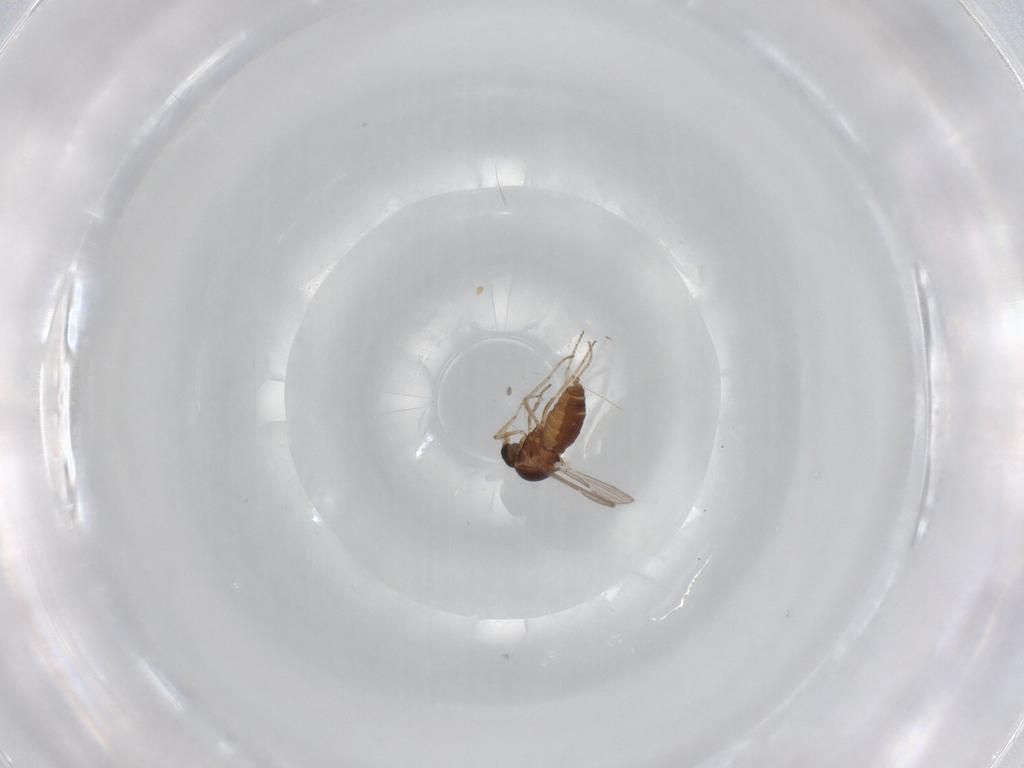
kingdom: Animalia
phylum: Arthropoda
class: Insecta
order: Diptera
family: Ceratopogonidae
